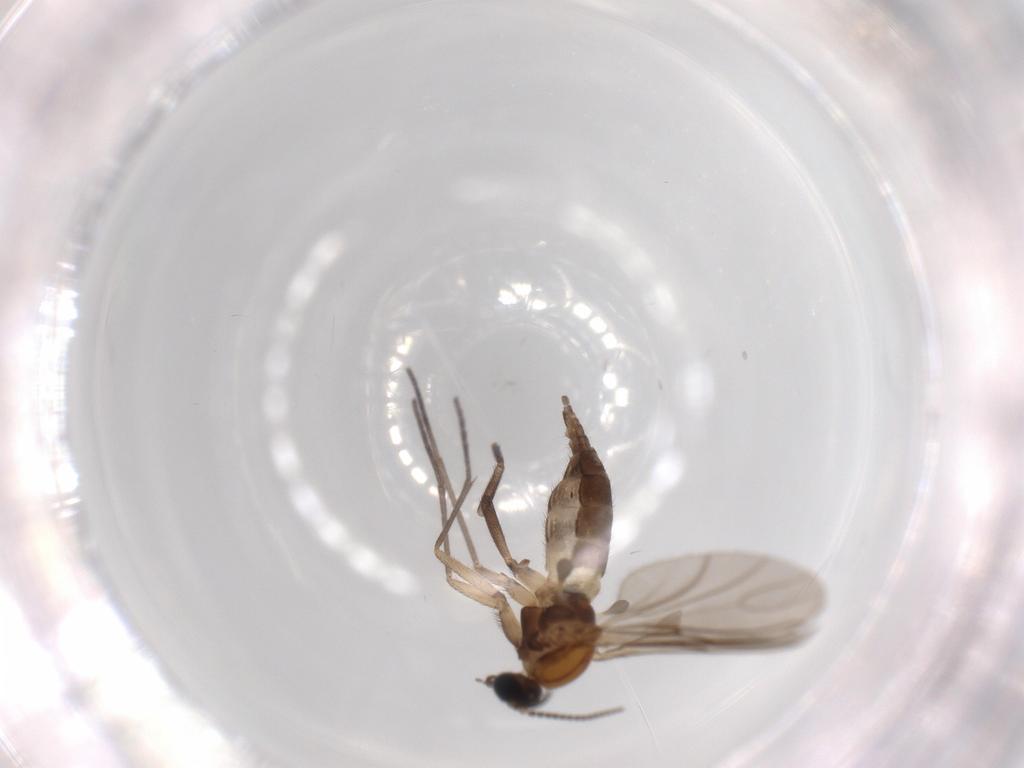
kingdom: Animalia
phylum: Arthropoda
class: Insecta
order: Diptera
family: Sciaridae
